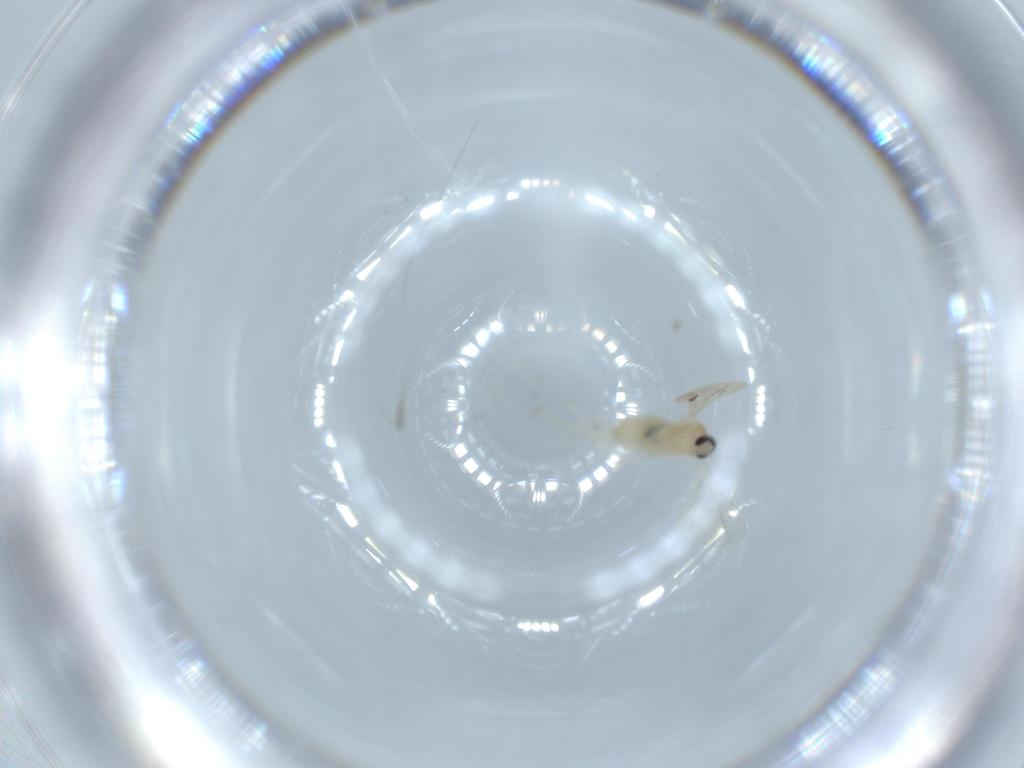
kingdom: Animalia
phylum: Arthropoda
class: Insecta
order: Diptera
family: Cecidomyiidae
